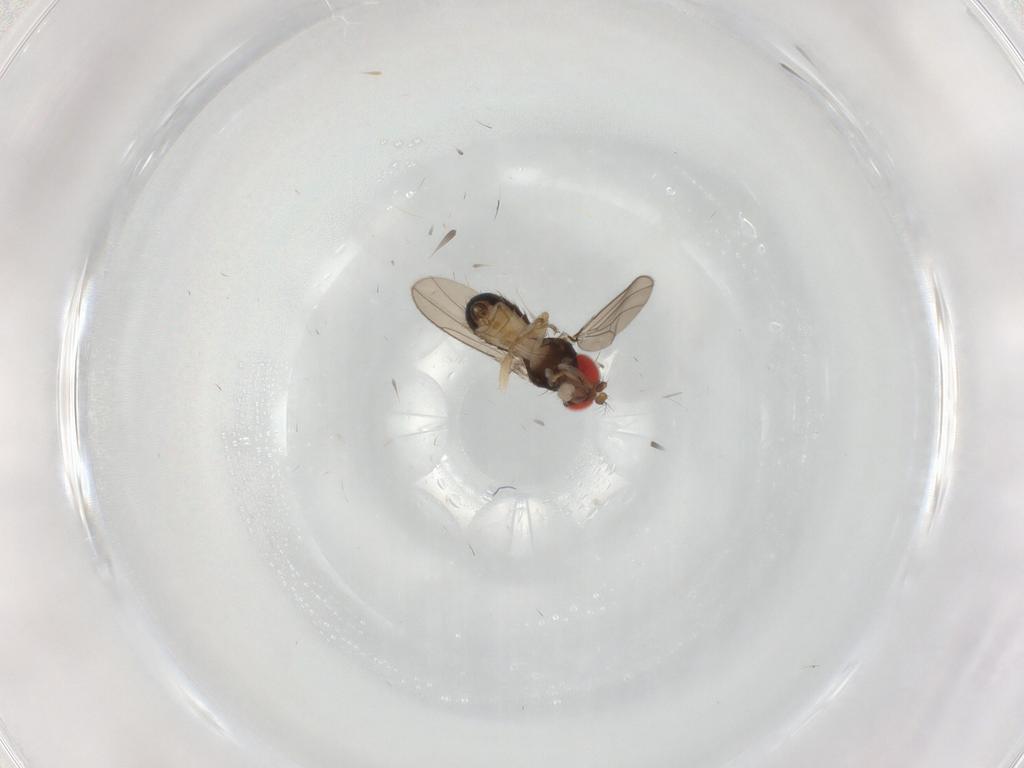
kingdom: Animalia
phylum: Arthropoda
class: Insecta
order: Diptera
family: Drosophilidae
